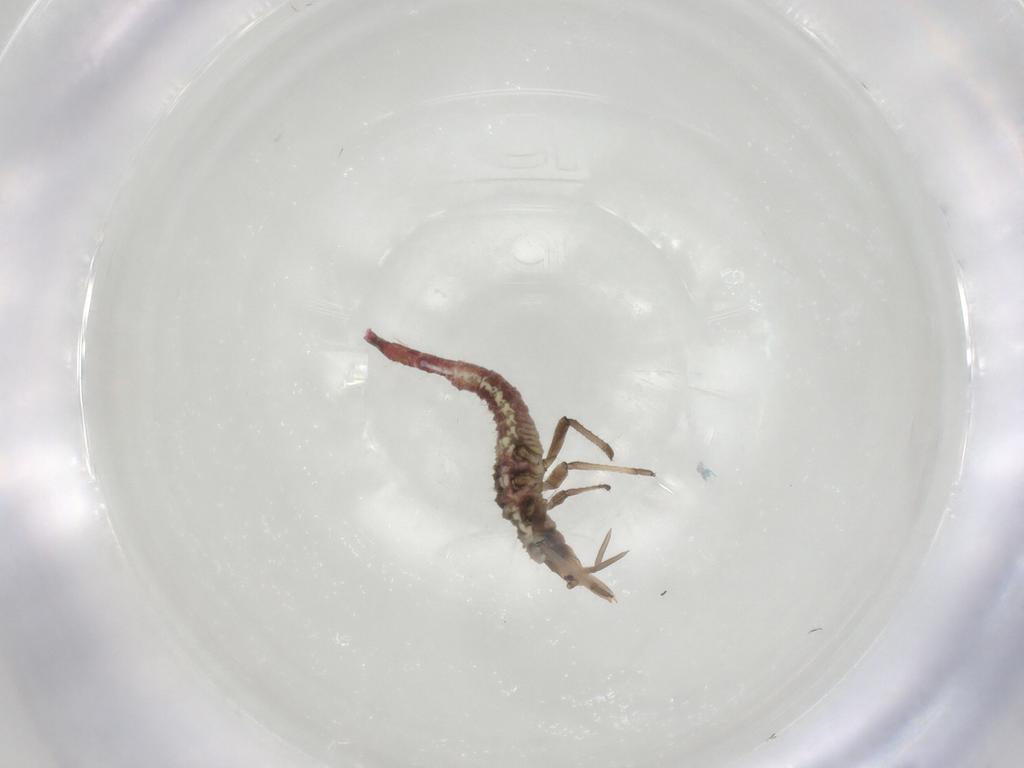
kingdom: Animalia
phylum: Arthropoda
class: Insecta
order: Neuroptera
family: Hemerobiidae
